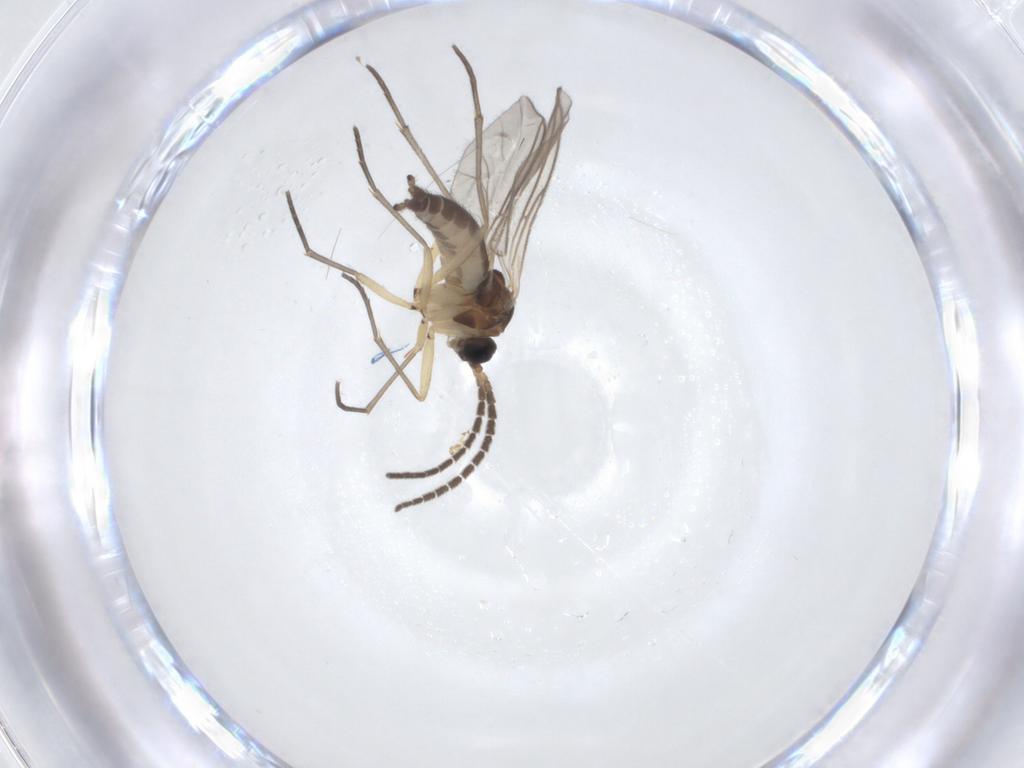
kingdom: Animalia
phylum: Arthropoda
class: Insecta
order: Diptera
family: Sciaridae
